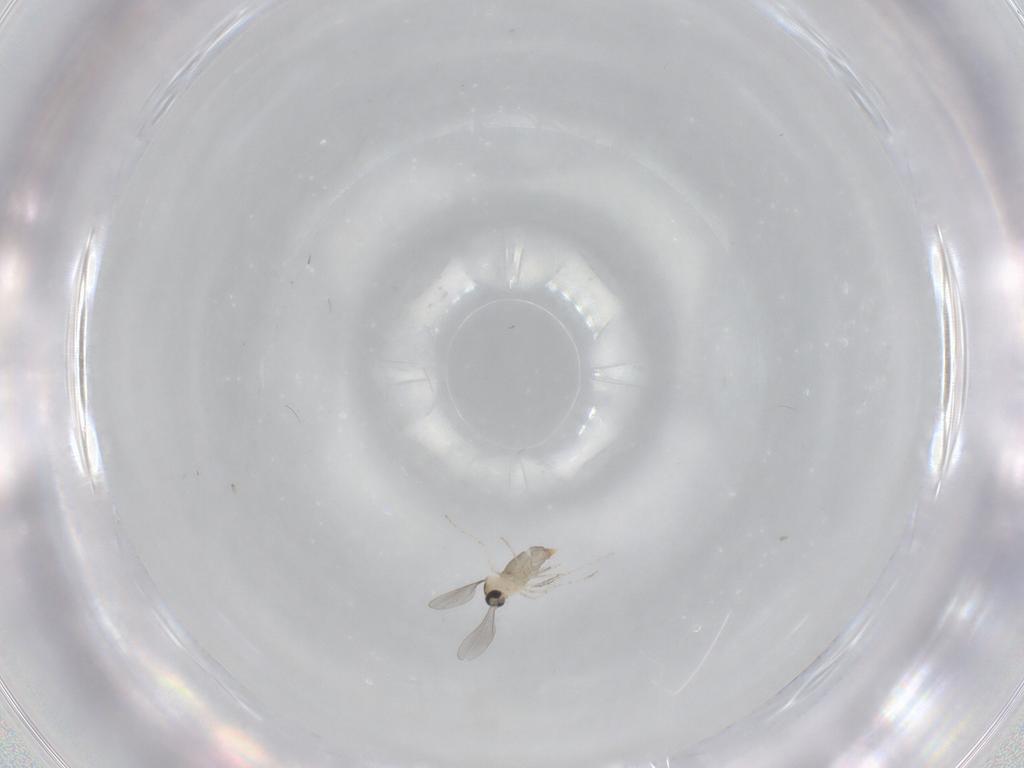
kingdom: Animalia
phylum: Arthropoda
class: Insecta
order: Diptera
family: Cecidomyiidae
